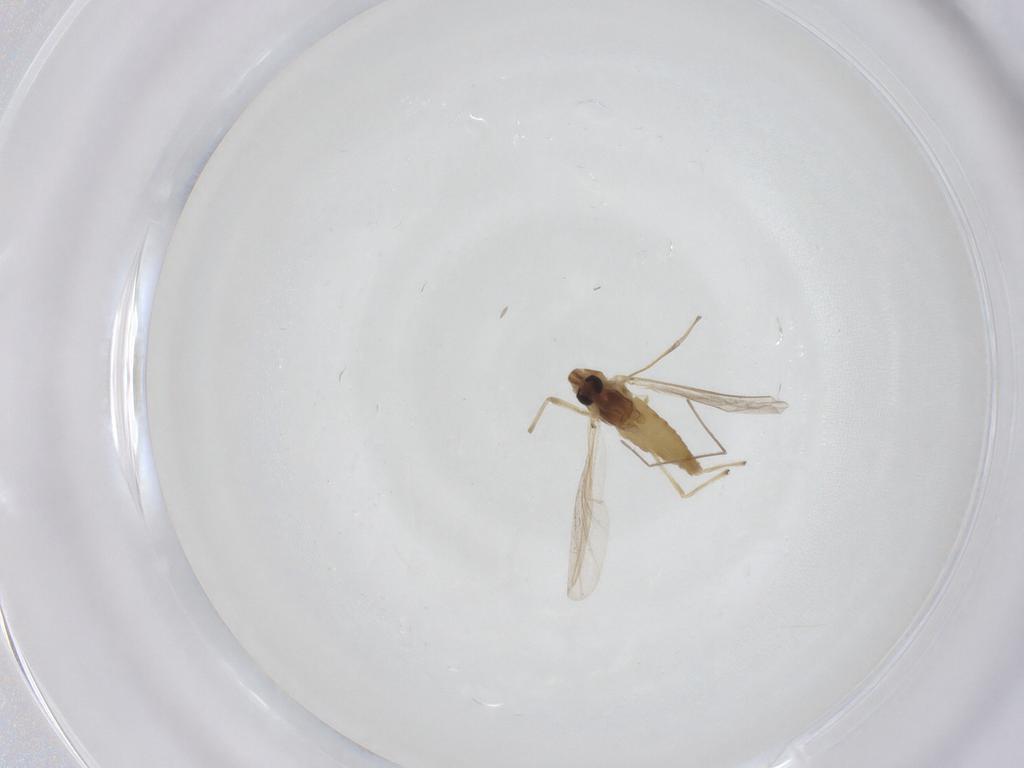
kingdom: Animalia
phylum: Arthropoda
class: Insecta
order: Diptera
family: Chironomidae
